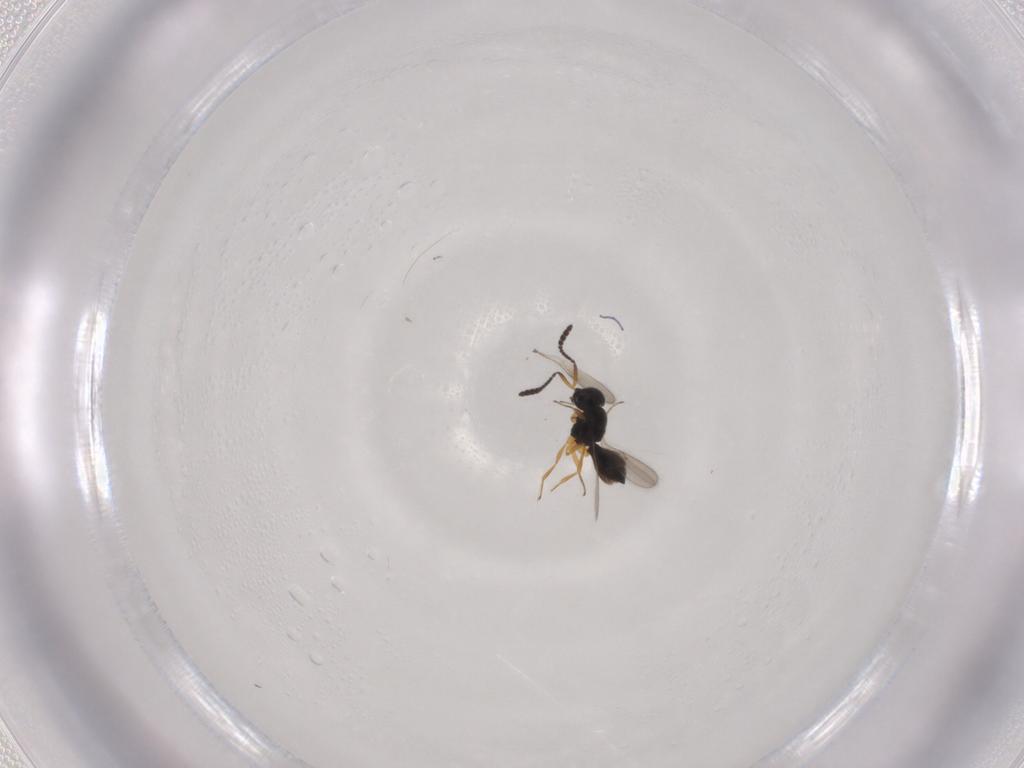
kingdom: Animalia
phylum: Arthropoda
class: Insecta
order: Hymenoptera
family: Scelionidae
